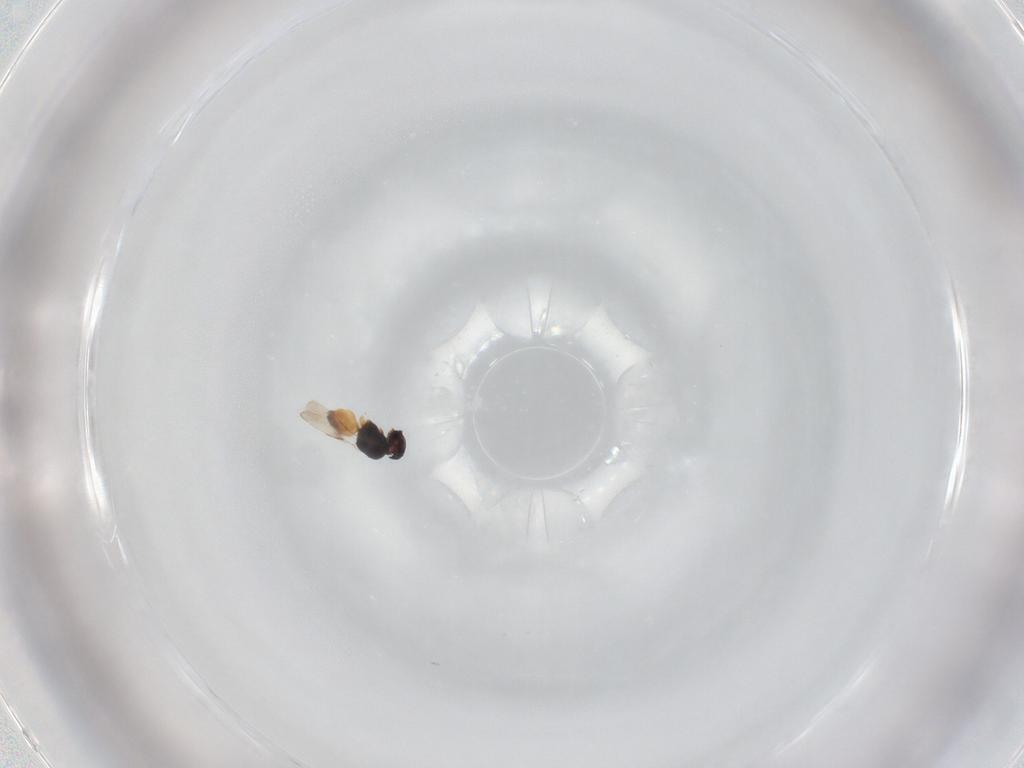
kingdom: Animalia
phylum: Arthropoda
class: Insecta
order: Hymenoptera
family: Eulophidae
